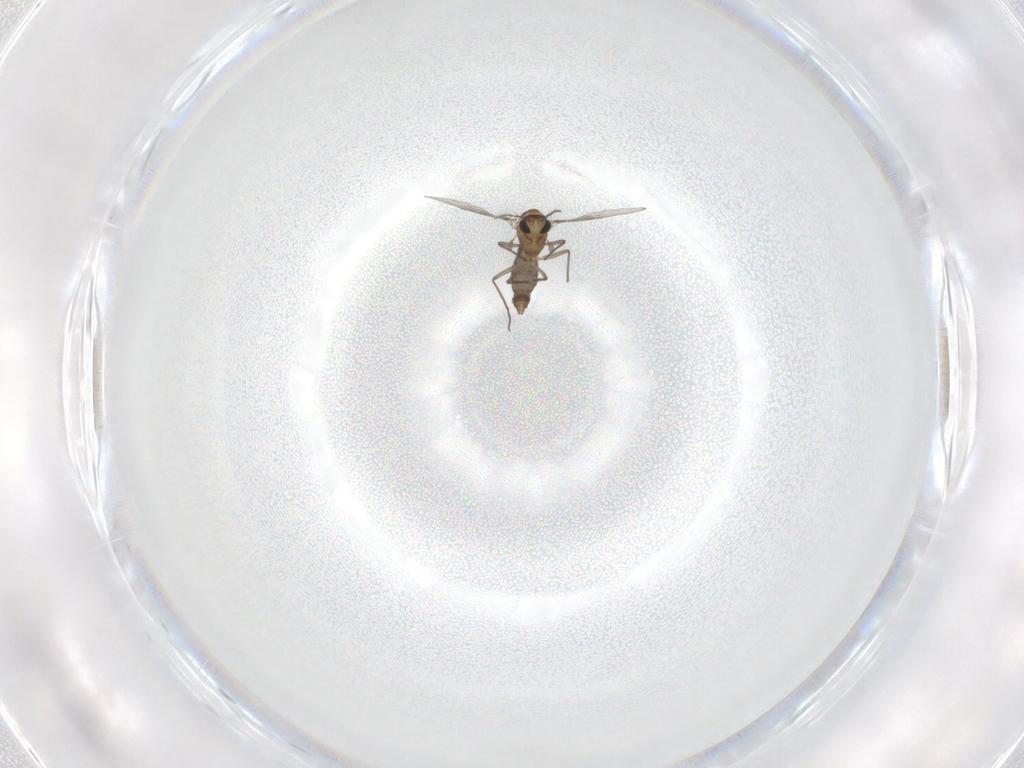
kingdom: Animalia
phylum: Arthropoda
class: Insecta
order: Diptera
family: Chironomidae
